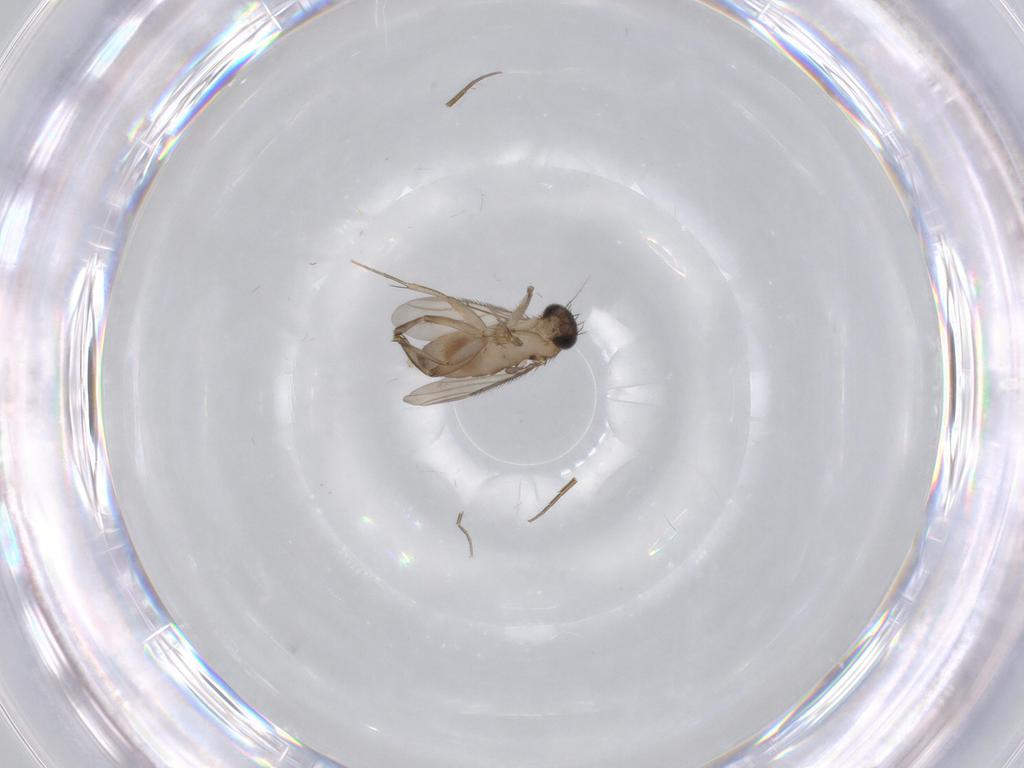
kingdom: Animalia
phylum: Arthropoda
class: Insecta
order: Diptera
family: Phoridae
